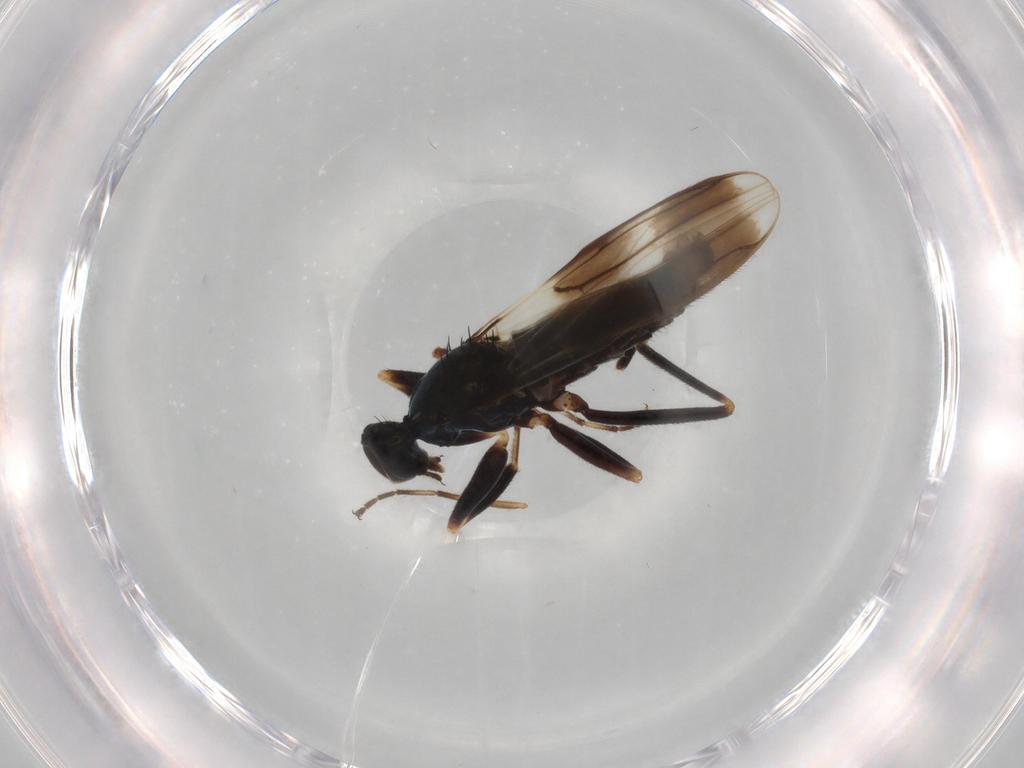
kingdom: Animalia
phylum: Arthropoda
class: Insecta
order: Diptera
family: Hybotidae
